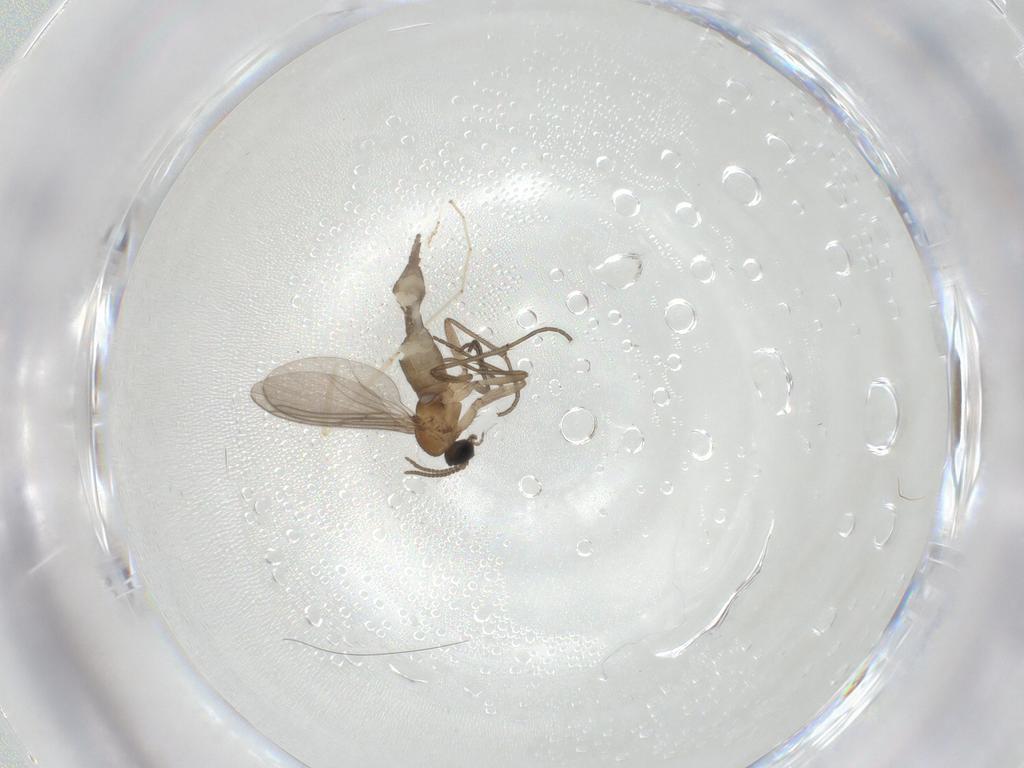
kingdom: Animalia
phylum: Arthropoda
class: Insecta
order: Diptera
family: Sciaridae
